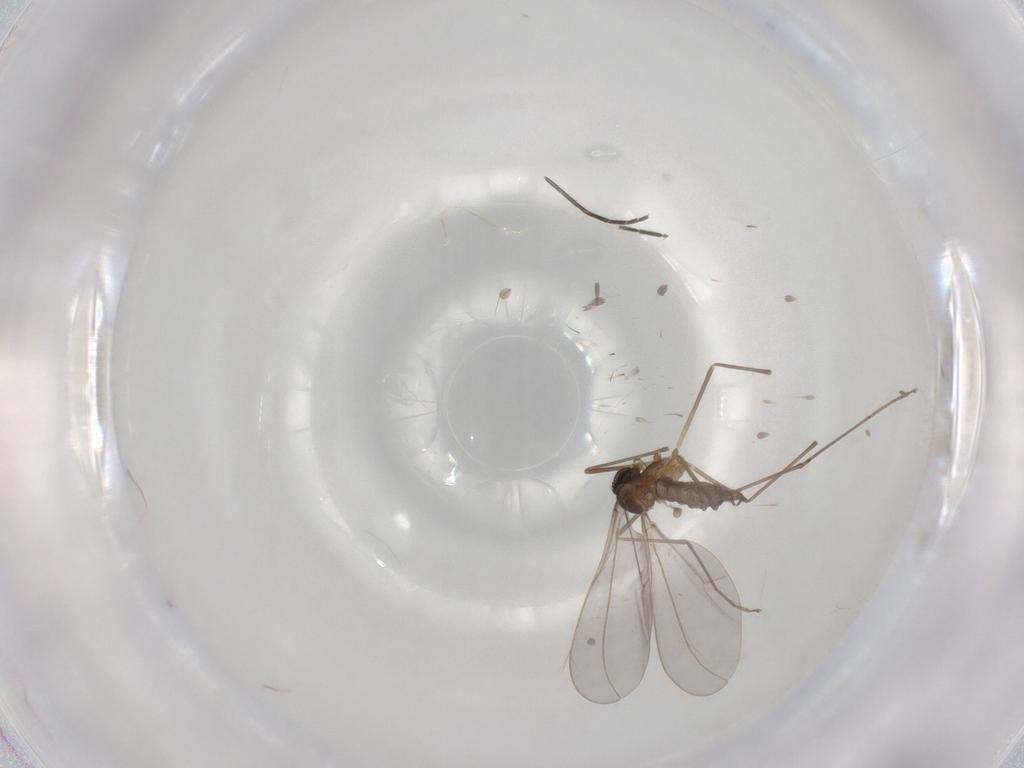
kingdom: Animalia
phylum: Arthropoda
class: Insecta
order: Diptera
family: Cecidomyiidae
